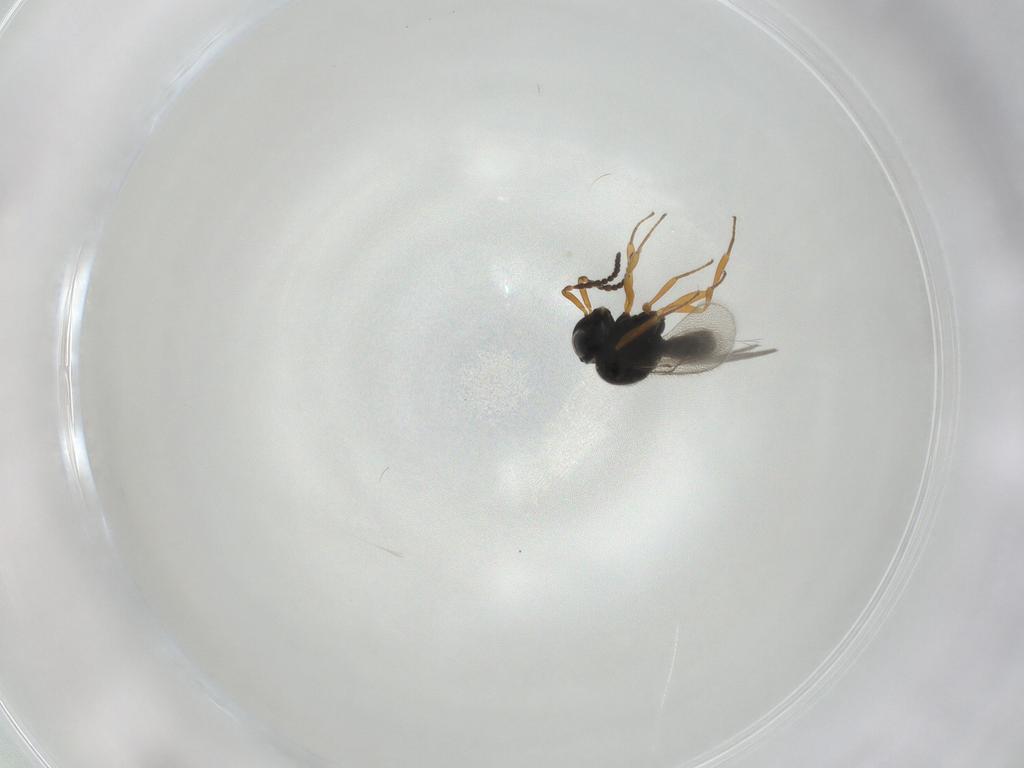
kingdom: Animalia
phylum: Arthropoda
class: Insecta
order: Hymenoptera
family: Scelionidae
